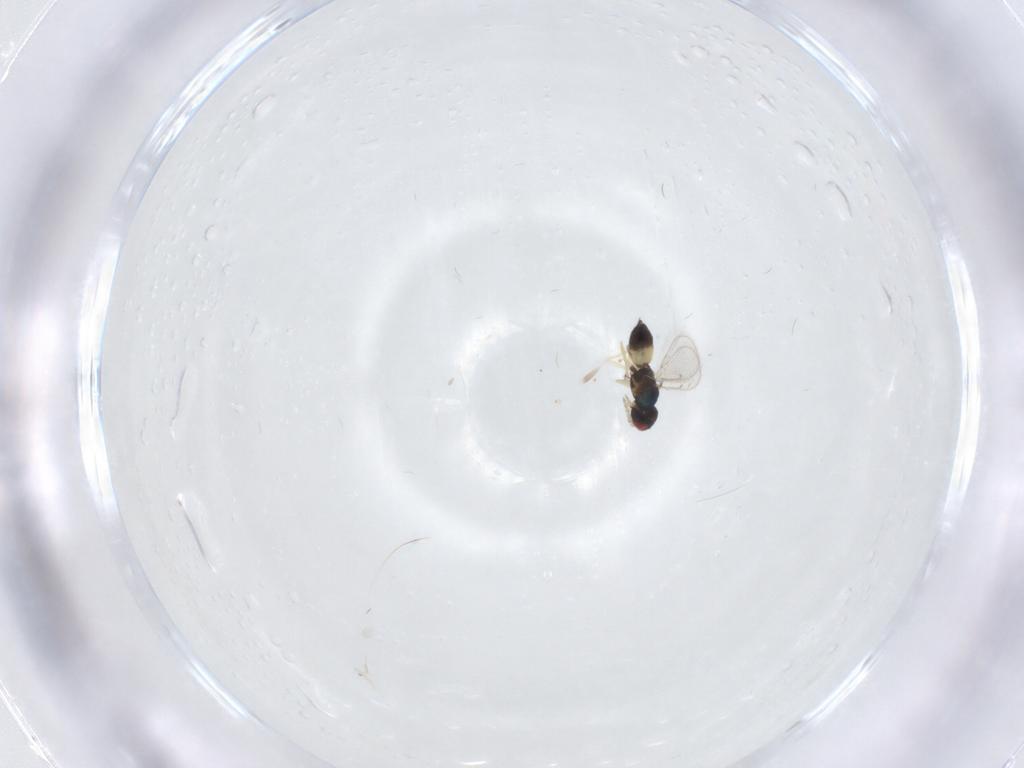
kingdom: Animalia
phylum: Arthropoda
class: Insecta
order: Hymenoptera
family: Eulophidae
